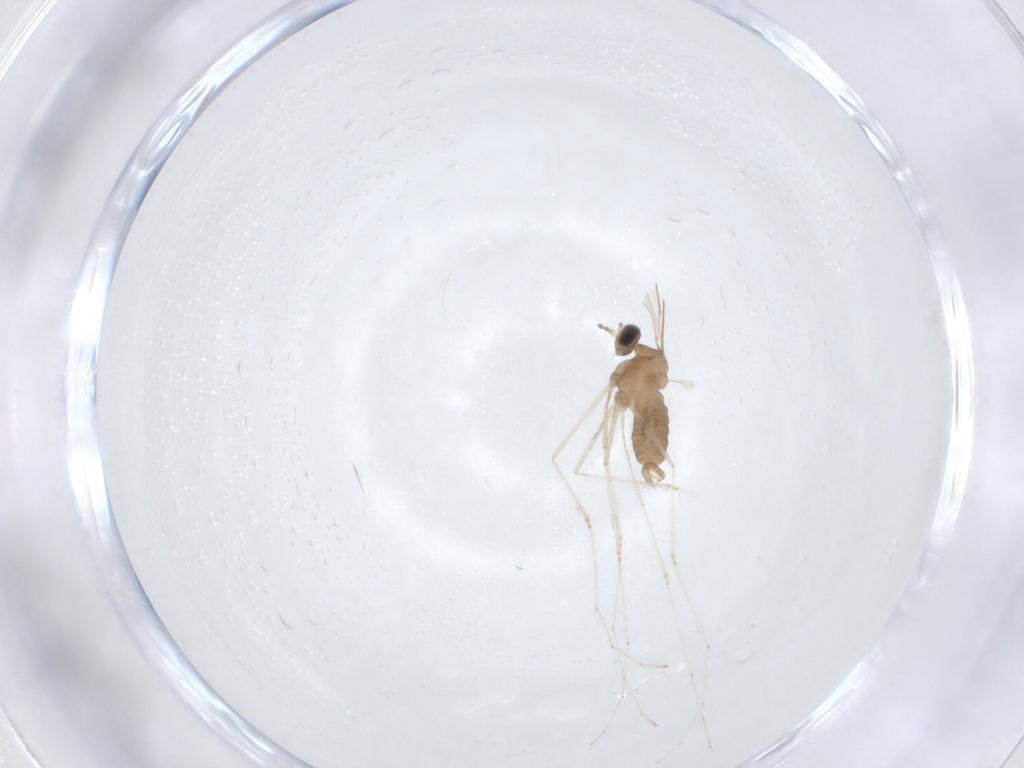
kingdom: Animalia
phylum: Arthropoda
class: Insecta
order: Diptera
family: Cecidomyiidae
